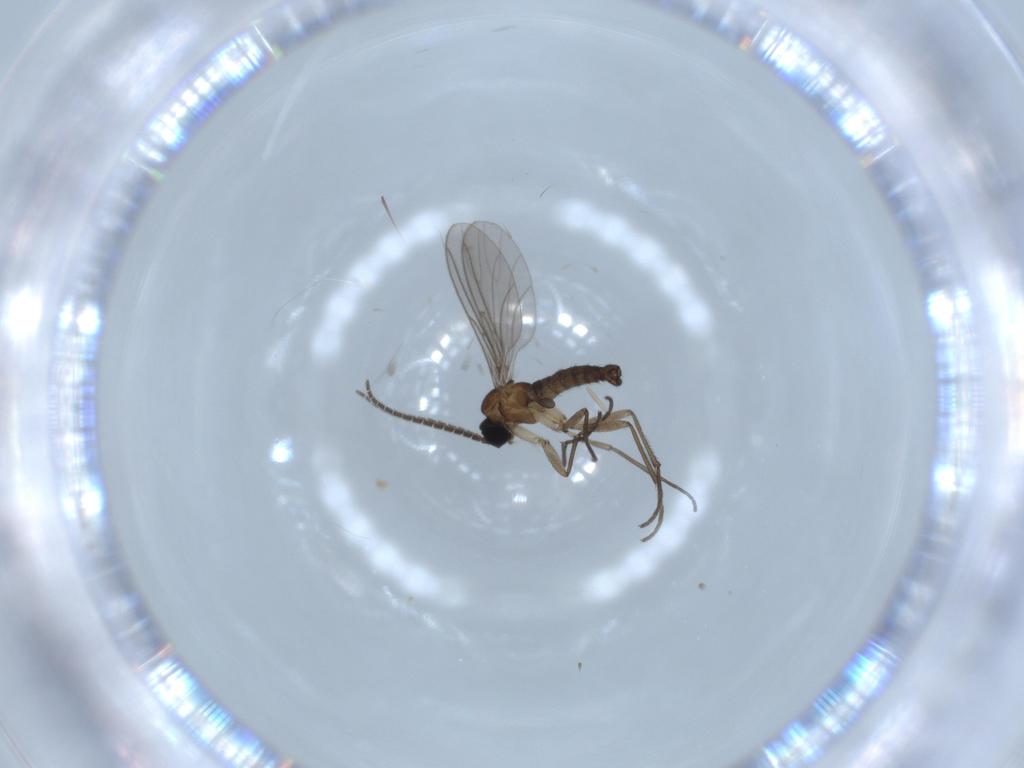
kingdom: Animalia
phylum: Arthropoda
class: Insecta
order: Diptera
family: Sciaridae
